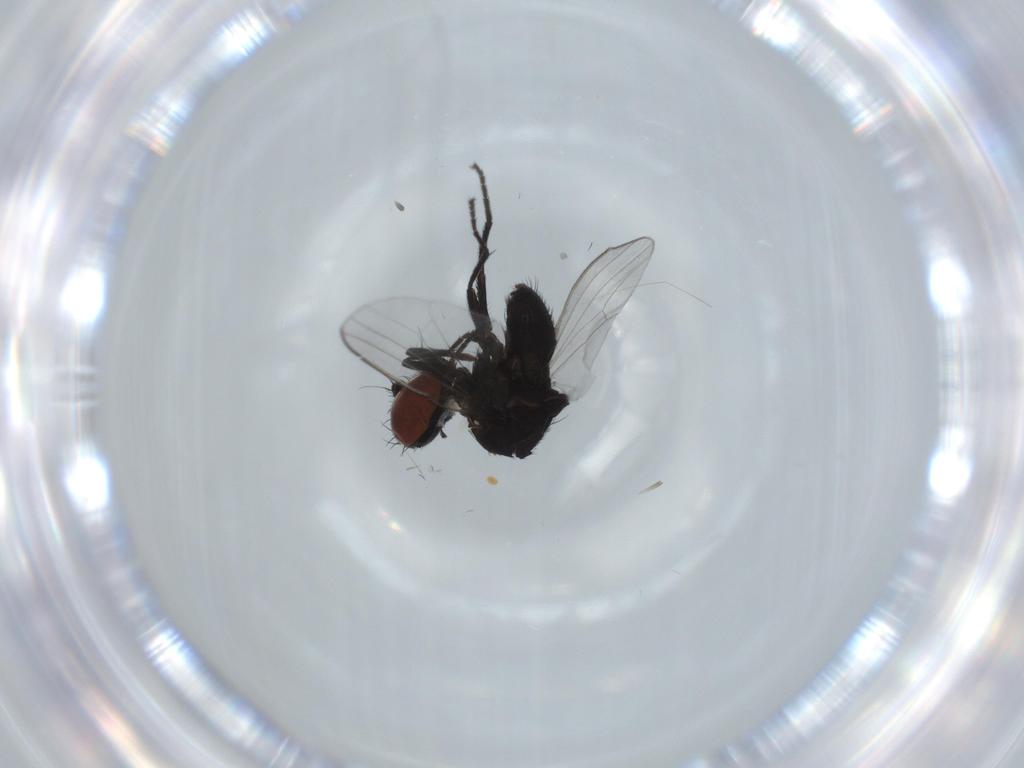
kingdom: Animalia
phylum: Arthropoda
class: Insecta
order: Diptera
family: Milichiidae
